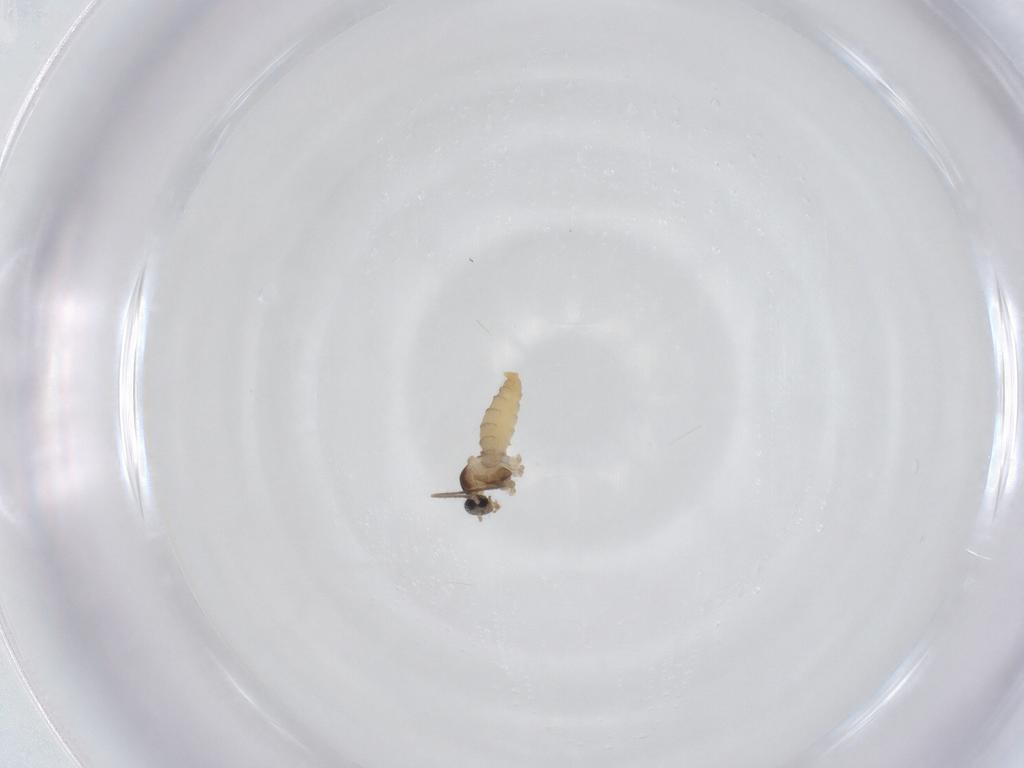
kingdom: Animalia
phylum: Arthropoda
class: Insecta
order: Diptera
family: Cecidomyiidae
